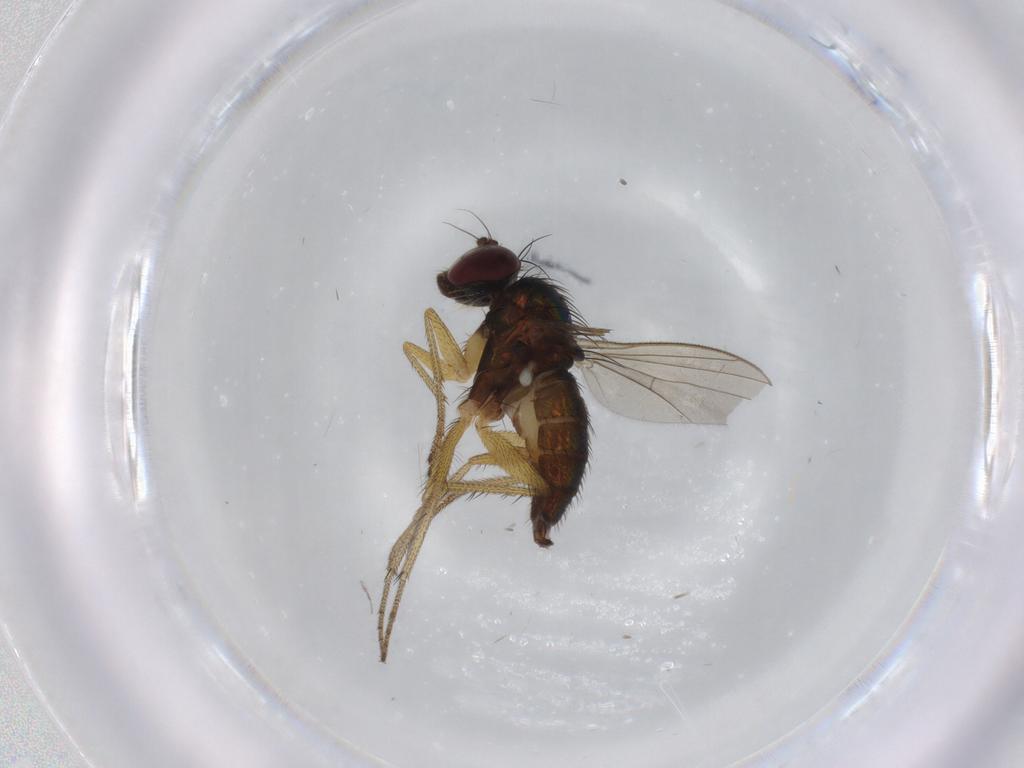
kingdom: Animalia
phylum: Arthropoda
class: Insecta
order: Diptera
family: Dolichopodidae
